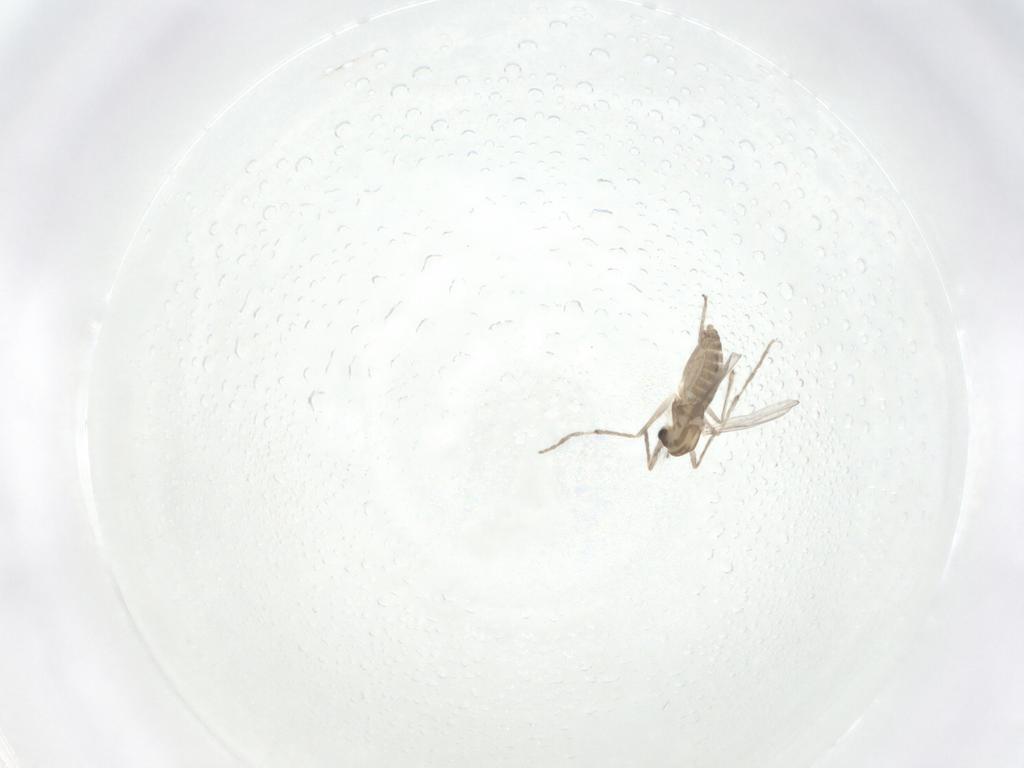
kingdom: Animalia
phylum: Arthropoda
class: Insecta
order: Diptera
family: Chironomidae
